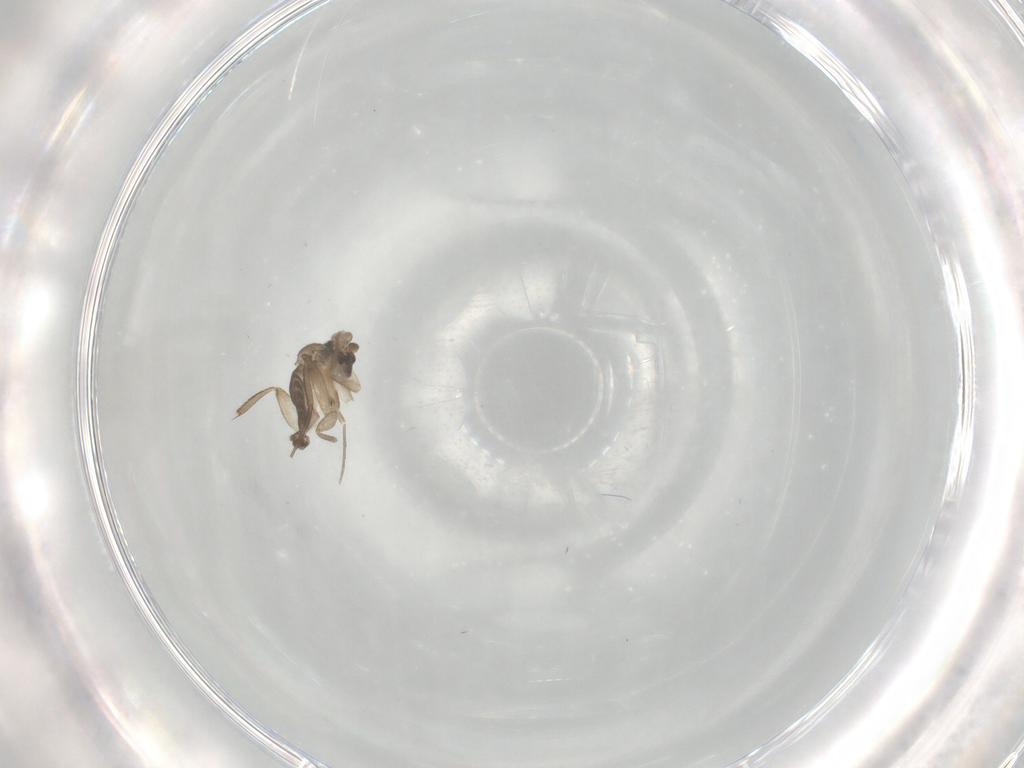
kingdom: Animalia
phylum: Arthropoda
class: Insecta
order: Diptera
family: Phoridae
